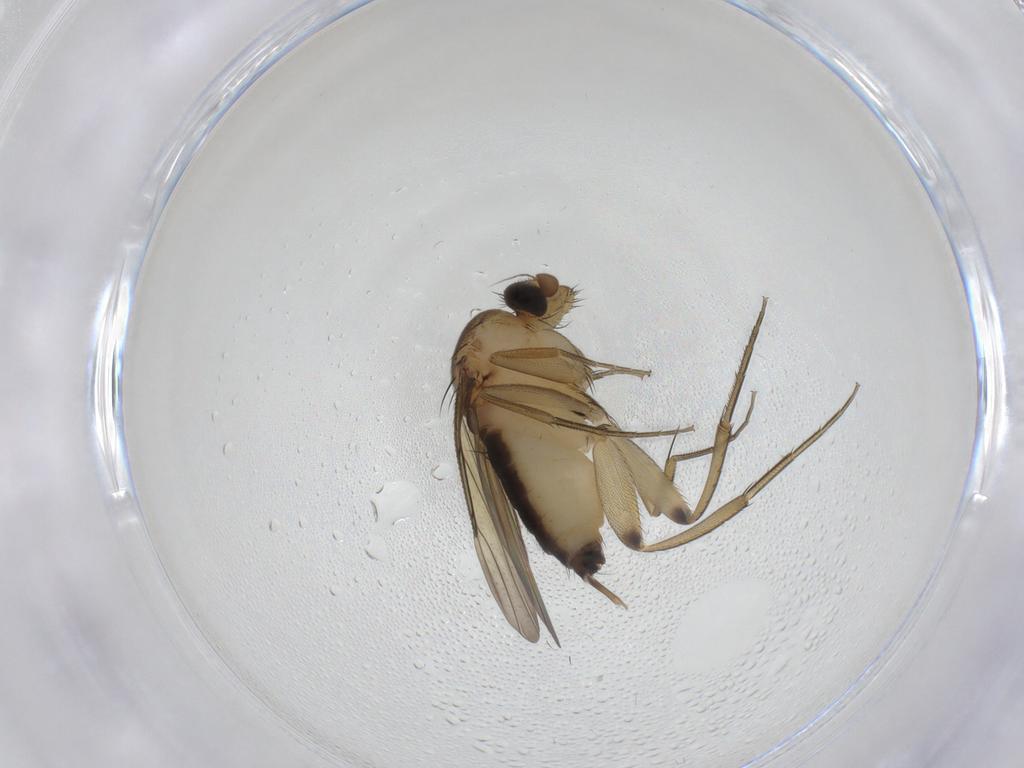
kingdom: Animalia
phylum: Arthropoda
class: Insecta
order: Diptera
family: Phoridae
